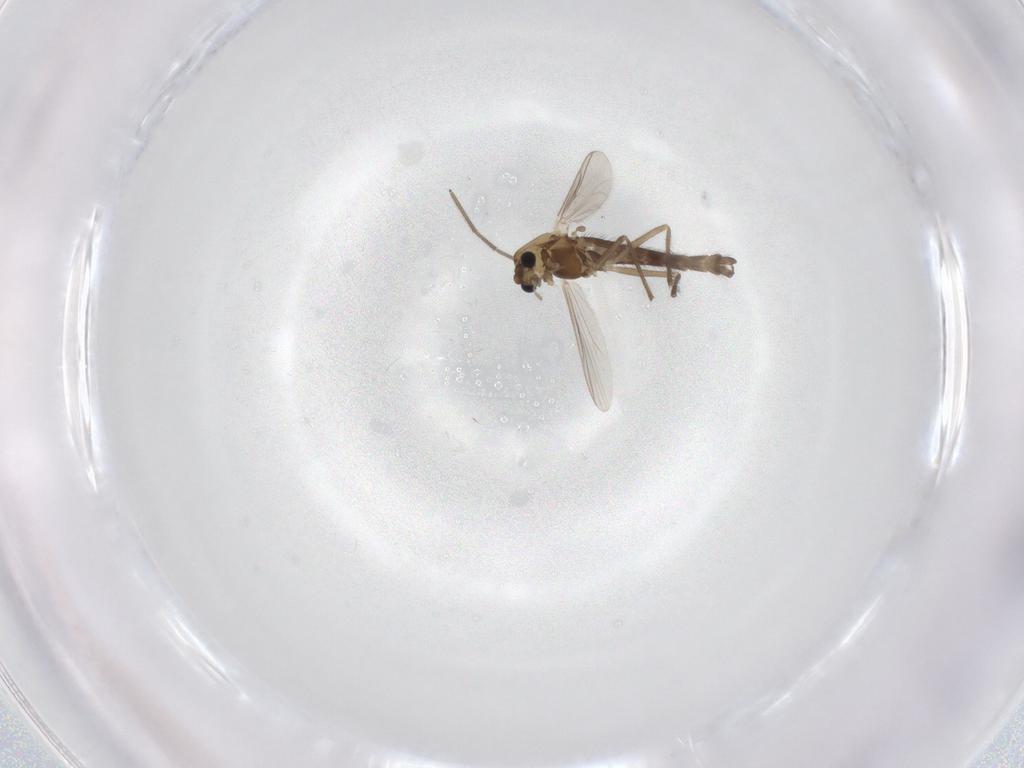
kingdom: Animalia
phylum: Arthropoda
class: Insecta
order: Diptera
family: Chironomidae
